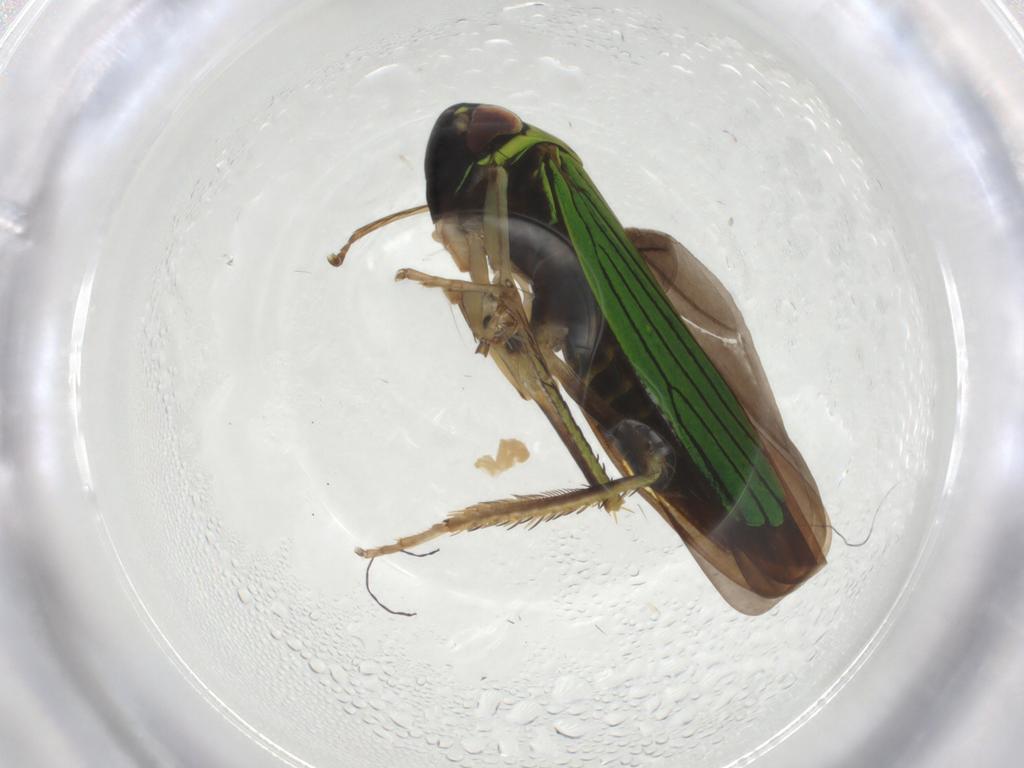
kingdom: Animalia
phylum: Arthropoda
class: Insecta
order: Hemiptera
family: Cicadellidae
